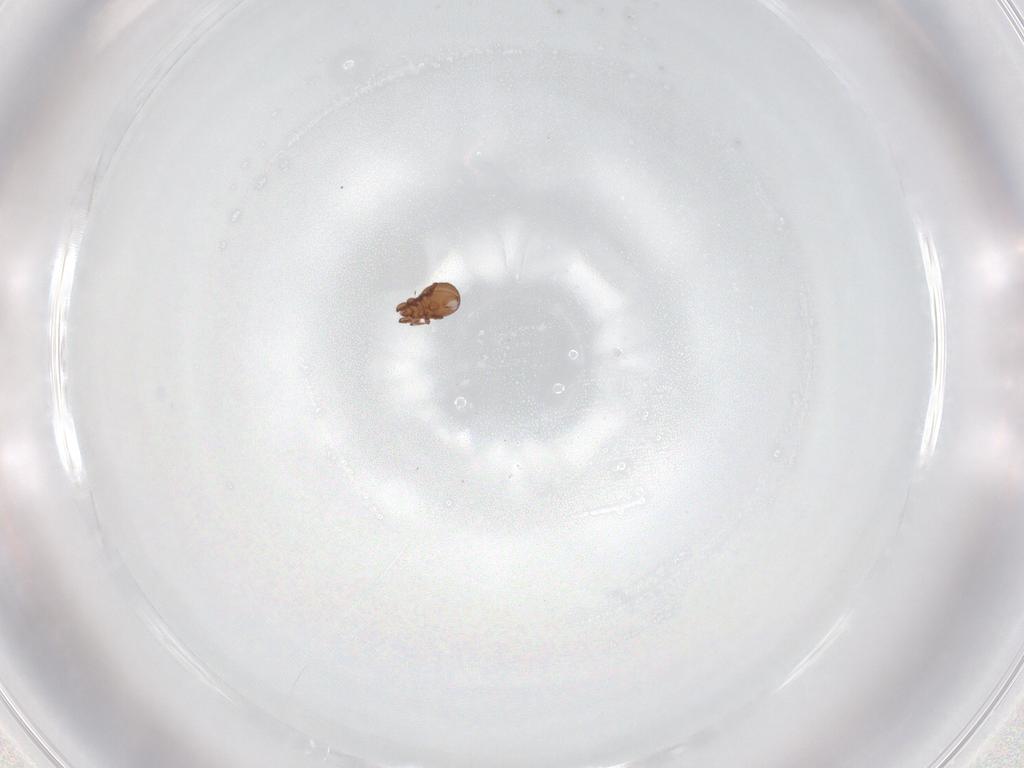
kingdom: Animalia
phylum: Arthropoda
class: Arachnida
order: Sarcoptiformes
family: Eremaeidae
